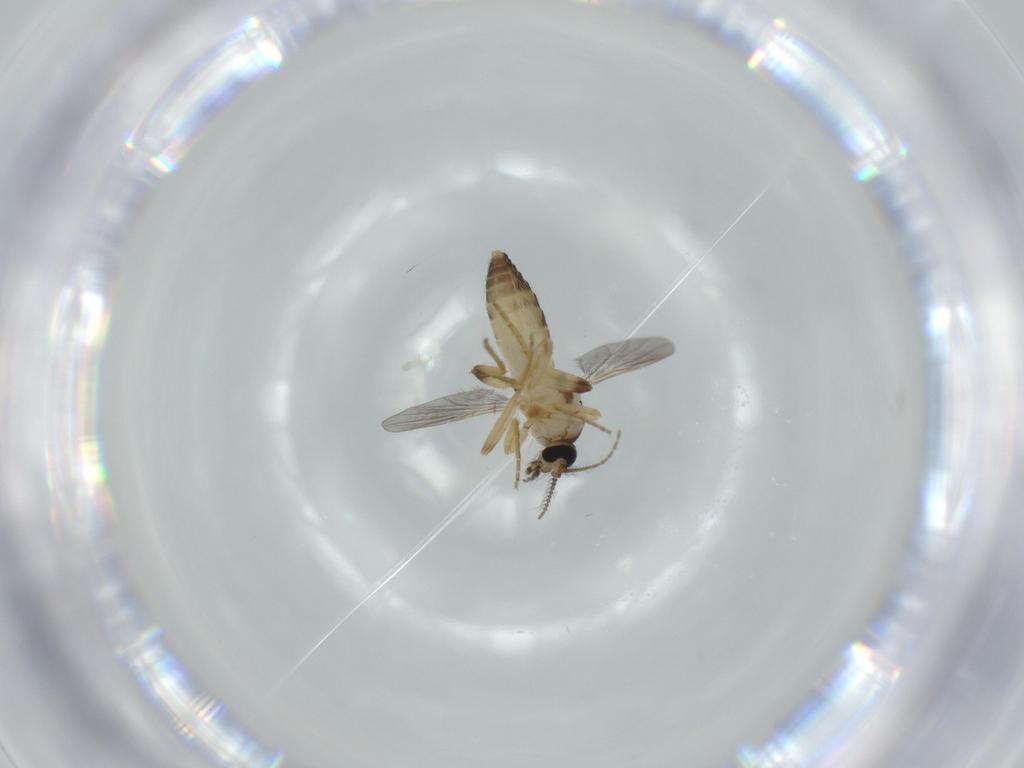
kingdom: Animalia
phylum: Arthropoda
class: Insecta
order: Diptera
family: Ceratopogonidae
